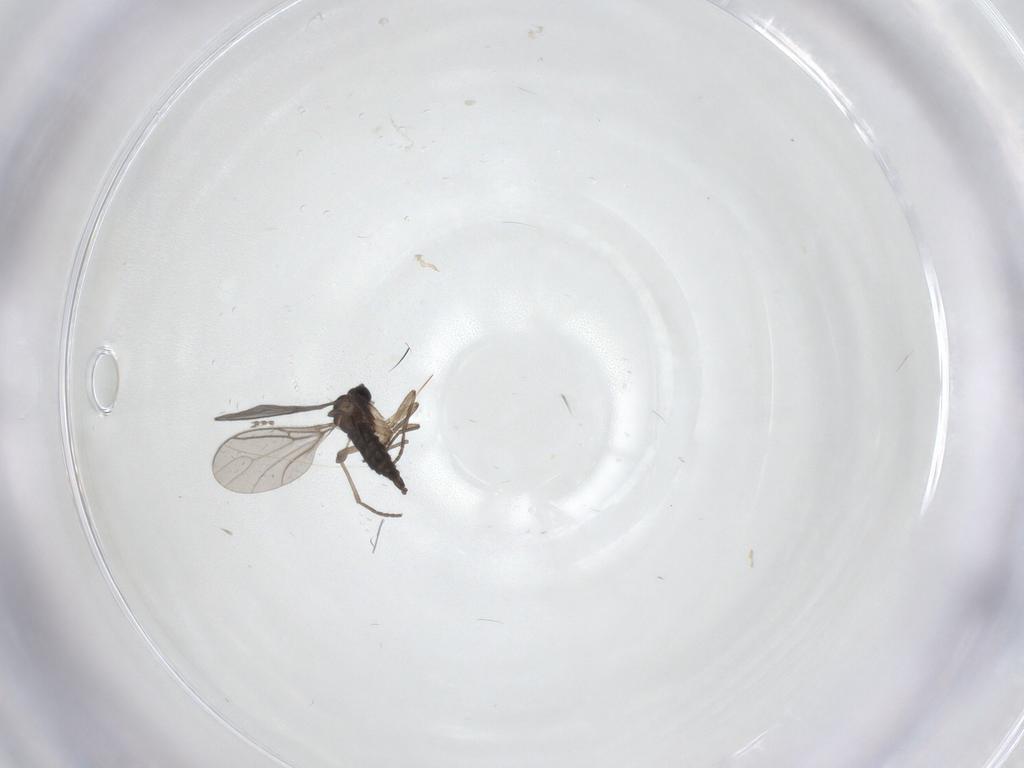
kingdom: Animalia
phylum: Arthropoda
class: Insecta
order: Diptera
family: Sciaridae
